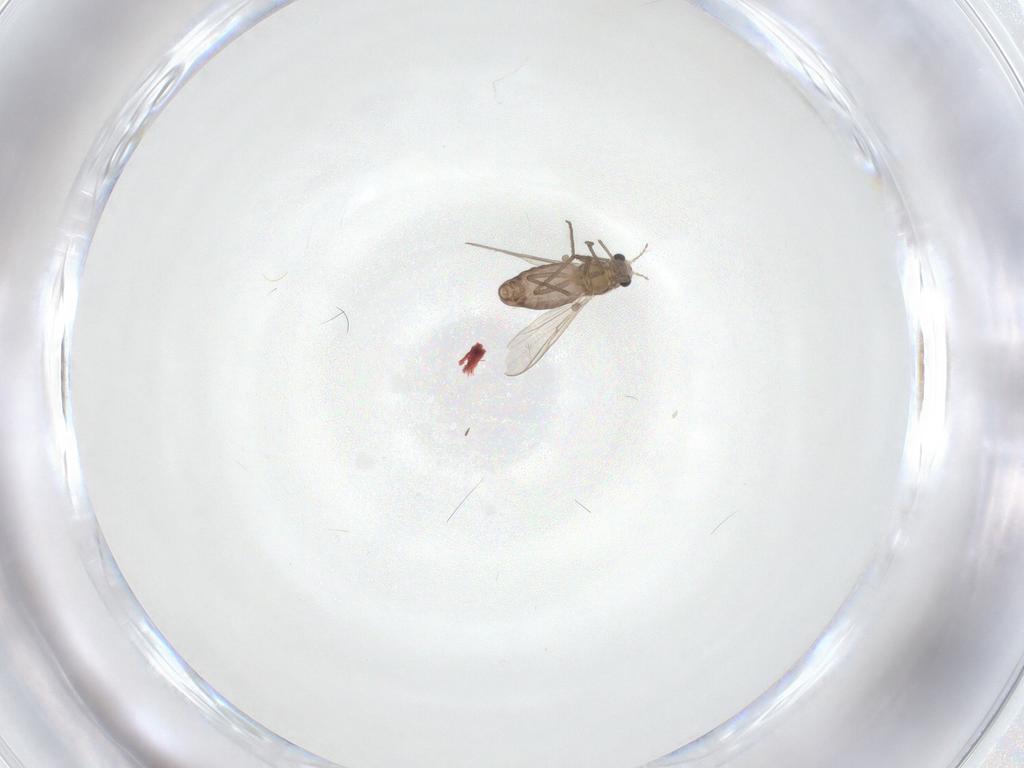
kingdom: Animalia
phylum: Arthropoda
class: Insecta
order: Diptera
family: Chironomidae
